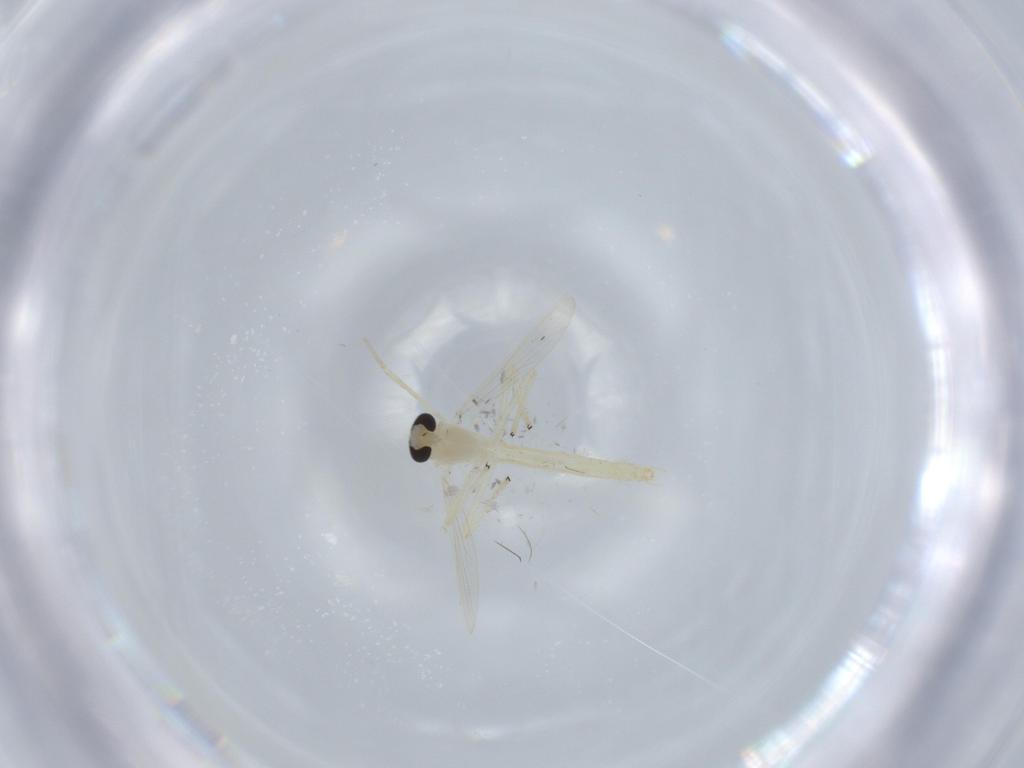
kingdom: Animalia
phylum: Arthropoda
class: Insecta
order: Diptera
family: Chironomidae
